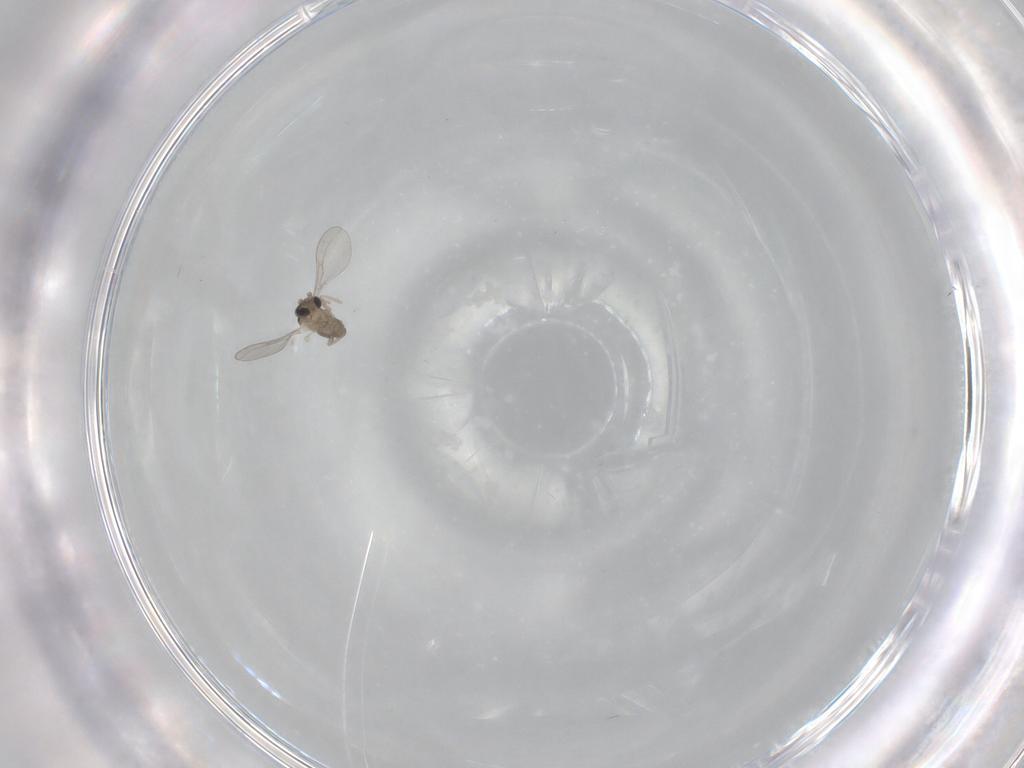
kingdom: Animalia
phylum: Arthropoda
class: Insecta
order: Diptera
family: Cecidomyiidae
